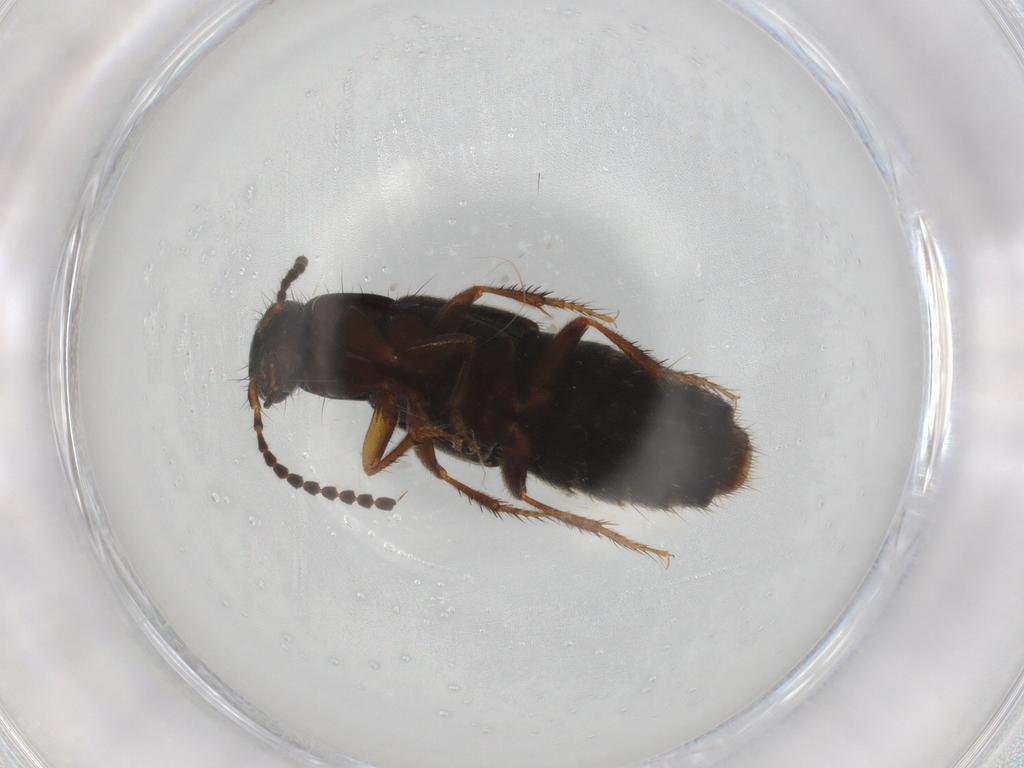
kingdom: Animalia
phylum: Arthropoda
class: Insecta
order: Coleoptera
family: Staphylinidae
